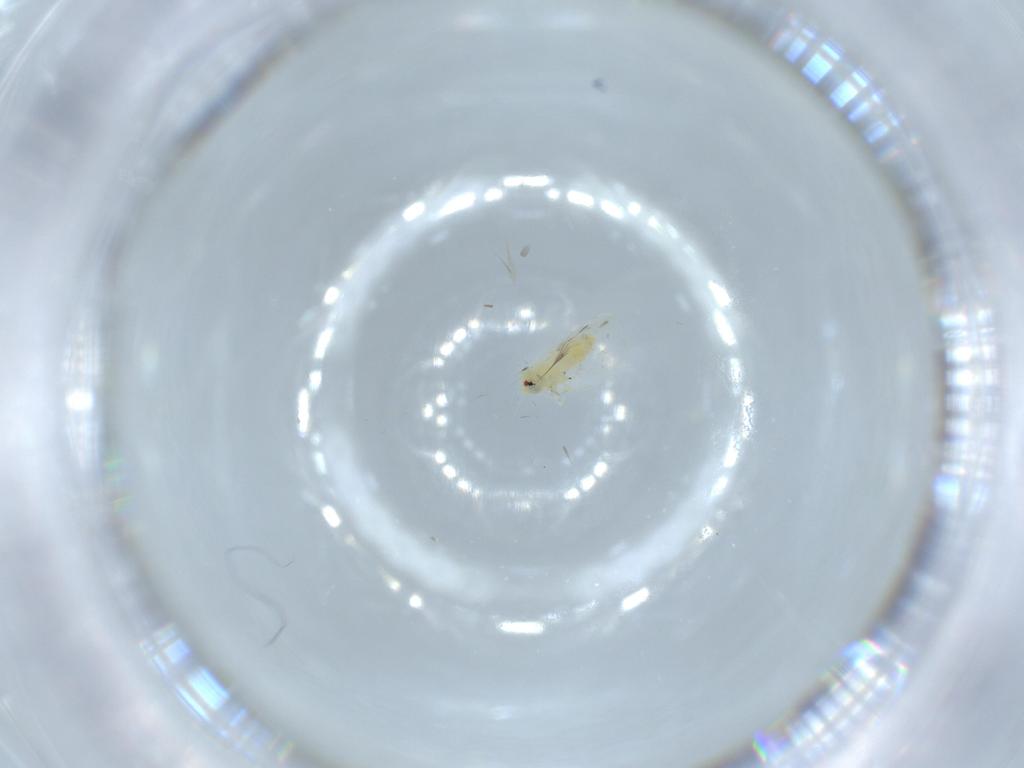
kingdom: Animalia
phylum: Arthropoda
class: Insecta
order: Hemiptera
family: Aleyrodidae
